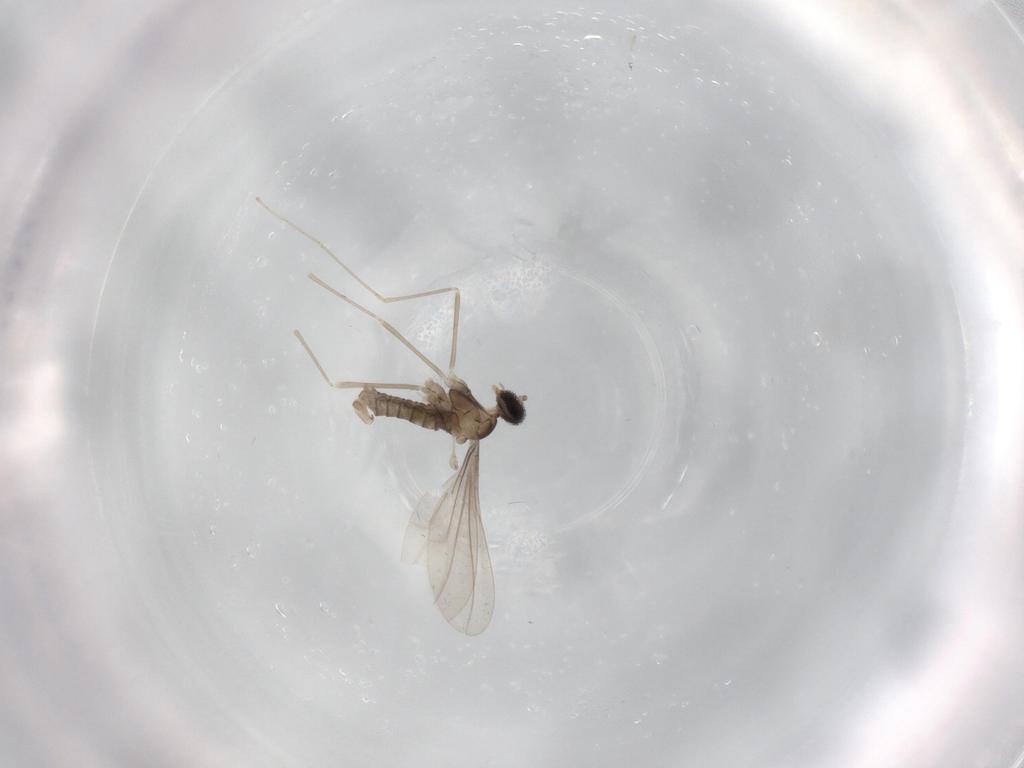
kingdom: Animalia
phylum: Arthropoda
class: Insecta
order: Diptera
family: Cecidomyiidae
